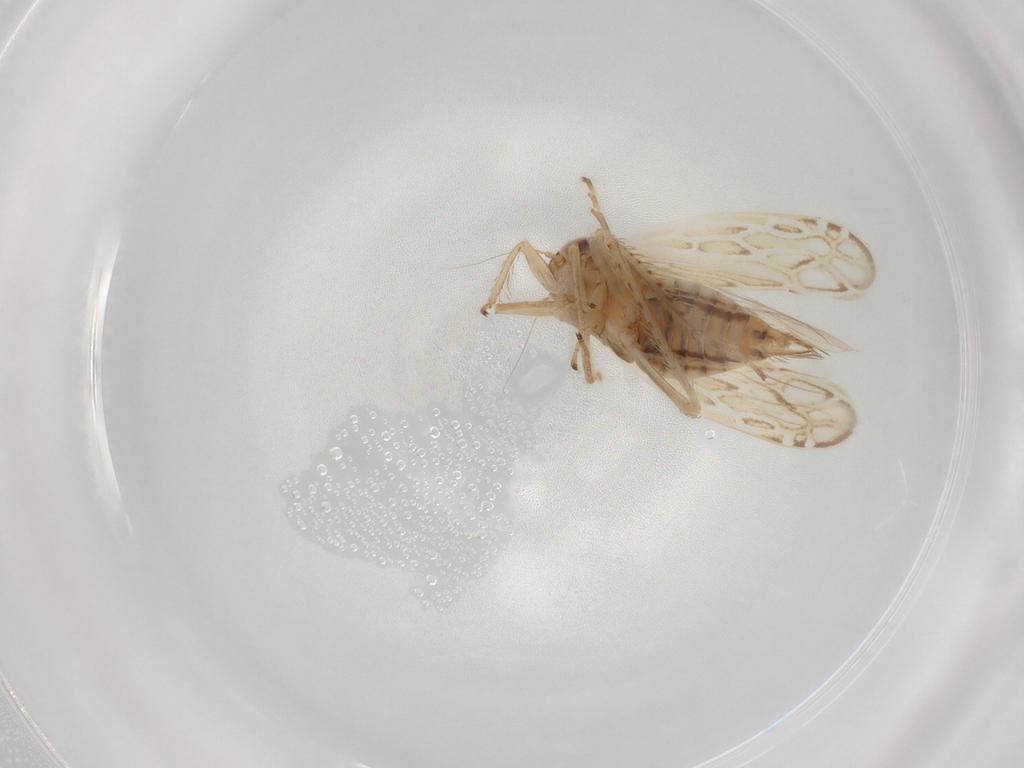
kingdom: Animalia
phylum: Arthropoda
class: Insecta
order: Hemiptera
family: Cicadellidae
